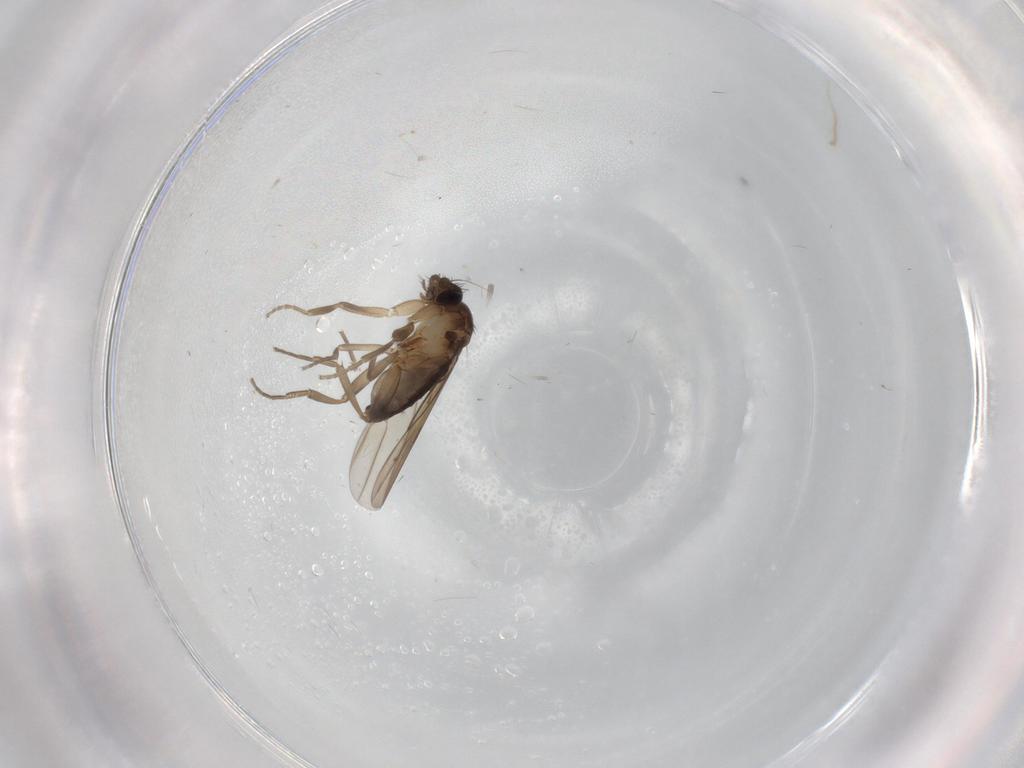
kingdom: Animalia
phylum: Arthropoda
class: Insecta
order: Diptera
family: Phoridae
